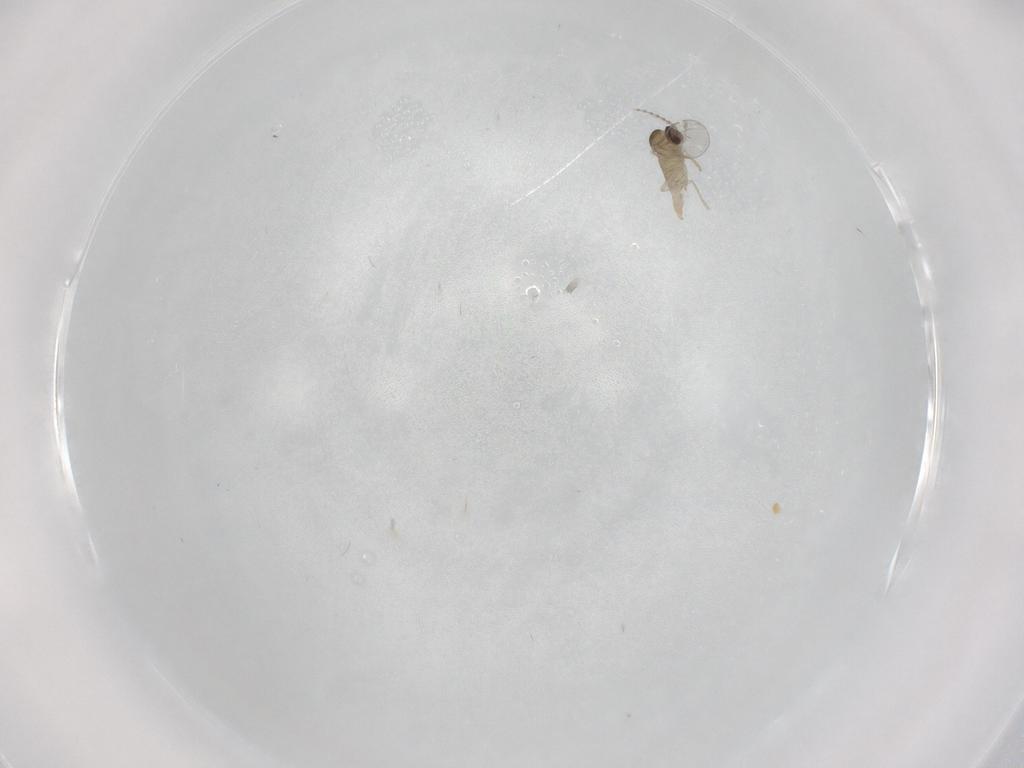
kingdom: Animalia
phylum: Arthropoda
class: Insecta
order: Diptera
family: Cecidomyiidae
